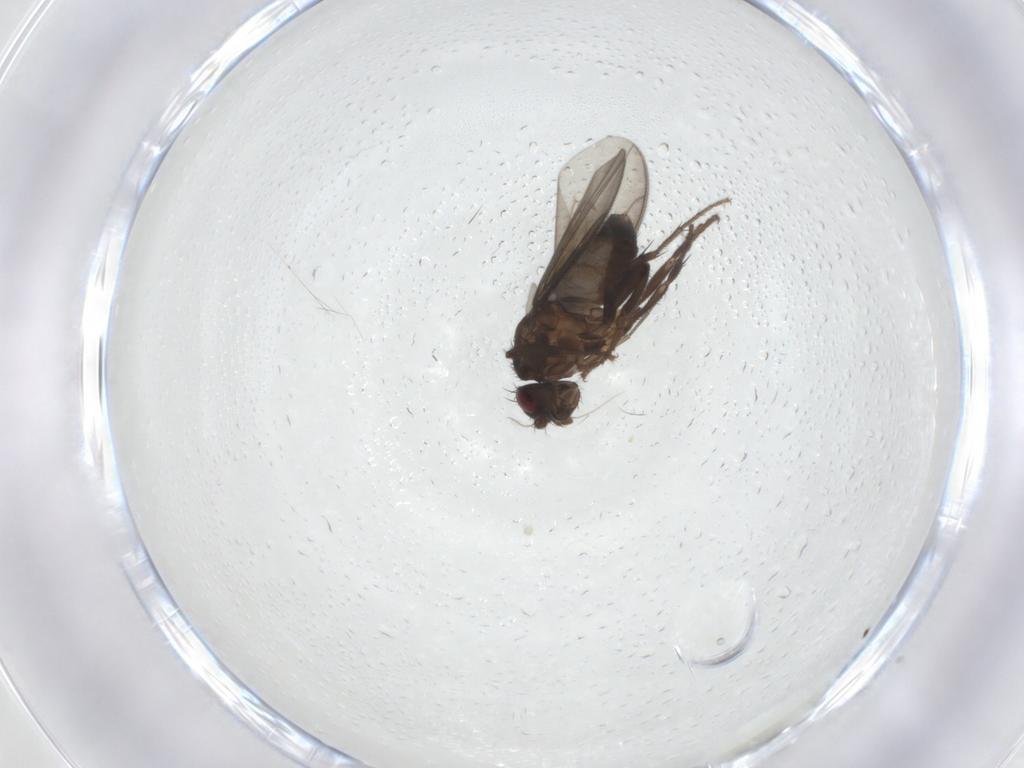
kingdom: Animalia
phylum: Arthropoda
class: Insecta
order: Diptera
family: Sphaeroceridae
